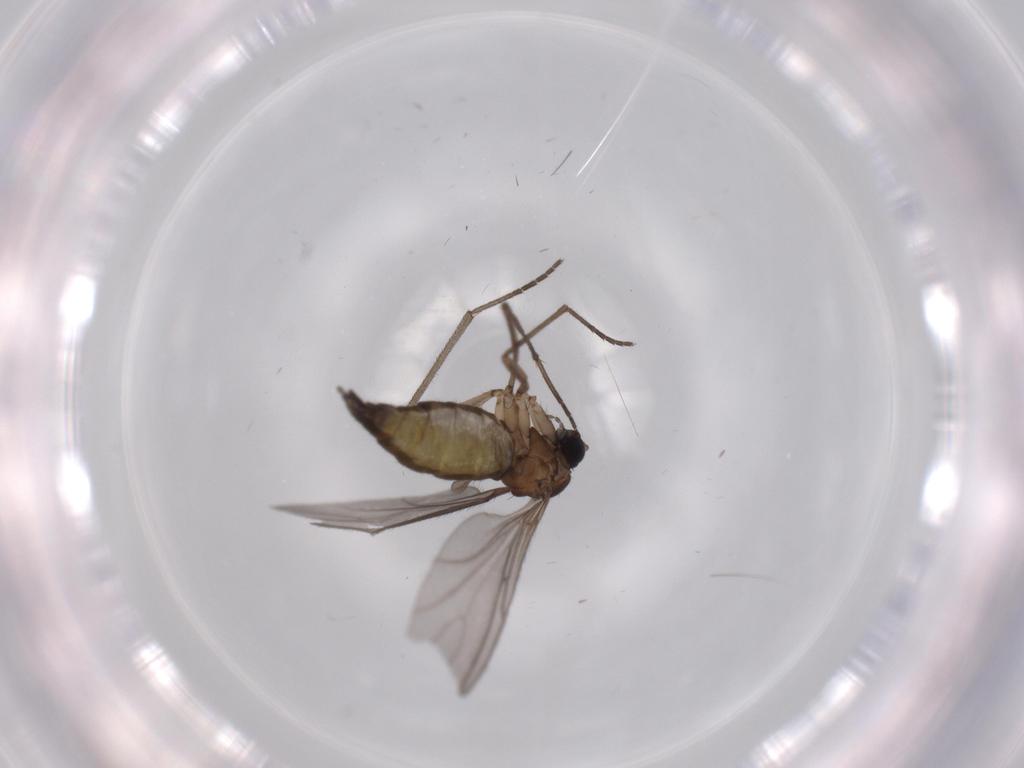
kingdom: Animalia
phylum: Arthropoda
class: Insecta
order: Diptera
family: Sciaridae
